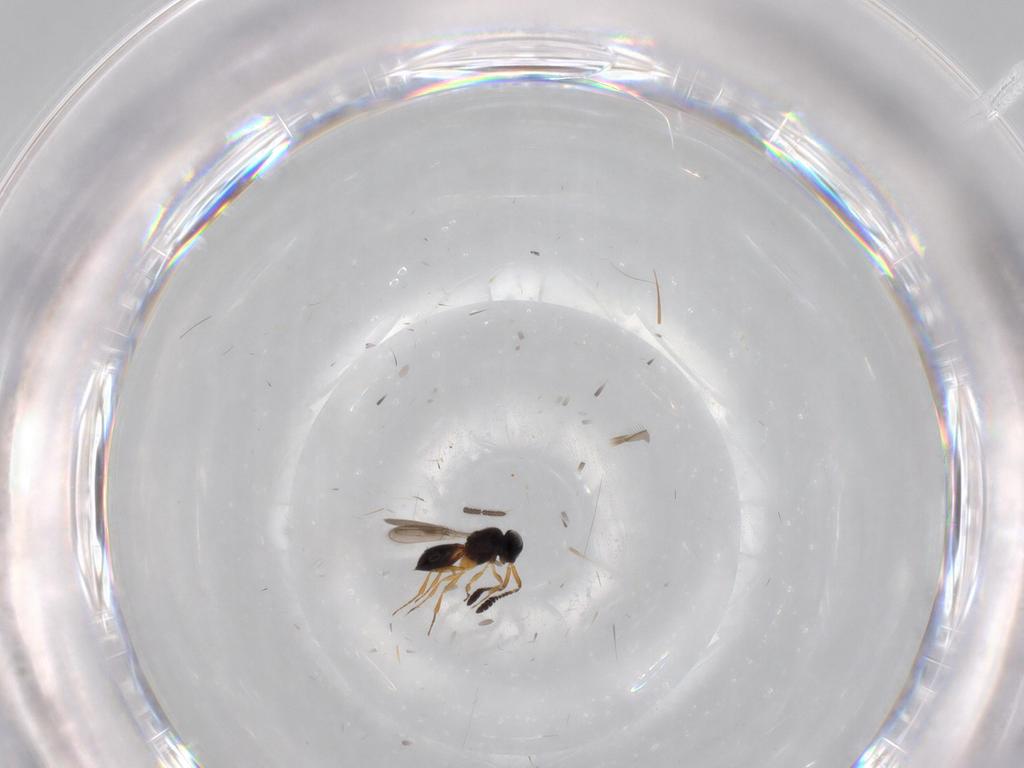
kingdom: Animalia
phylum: Arthropoda
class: Insecta
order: Hymenoptera
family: Scelionidae
